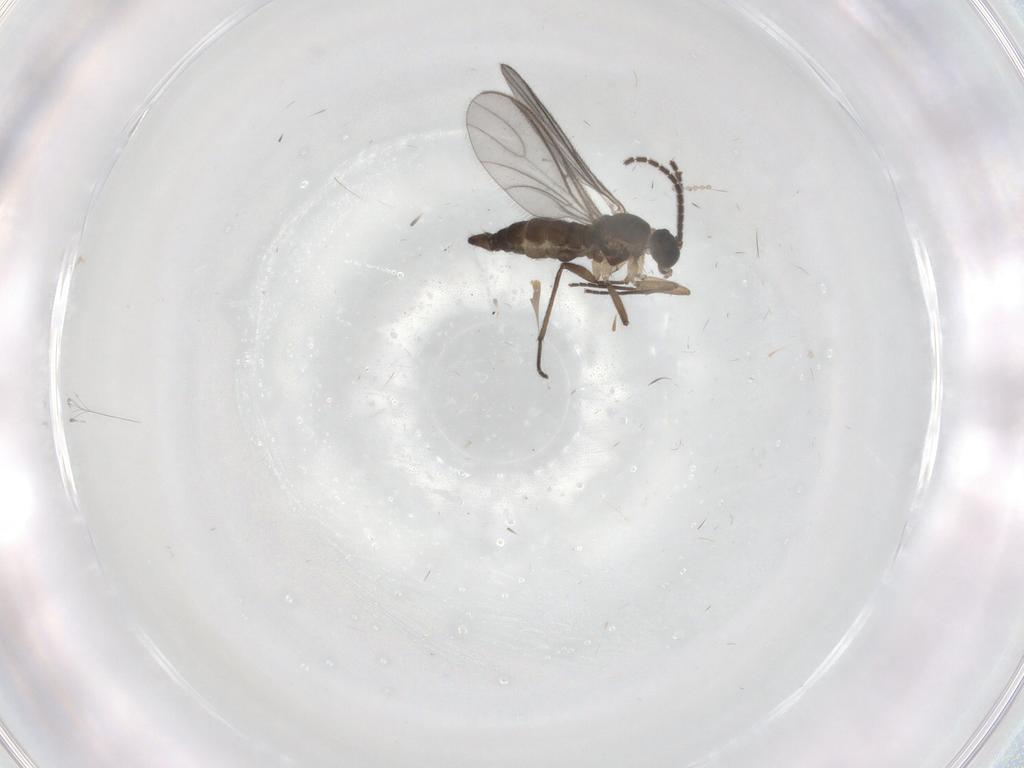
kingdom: Animalia
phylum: Arthropoda
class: Insecta
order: Diptera
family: Sciaridae
